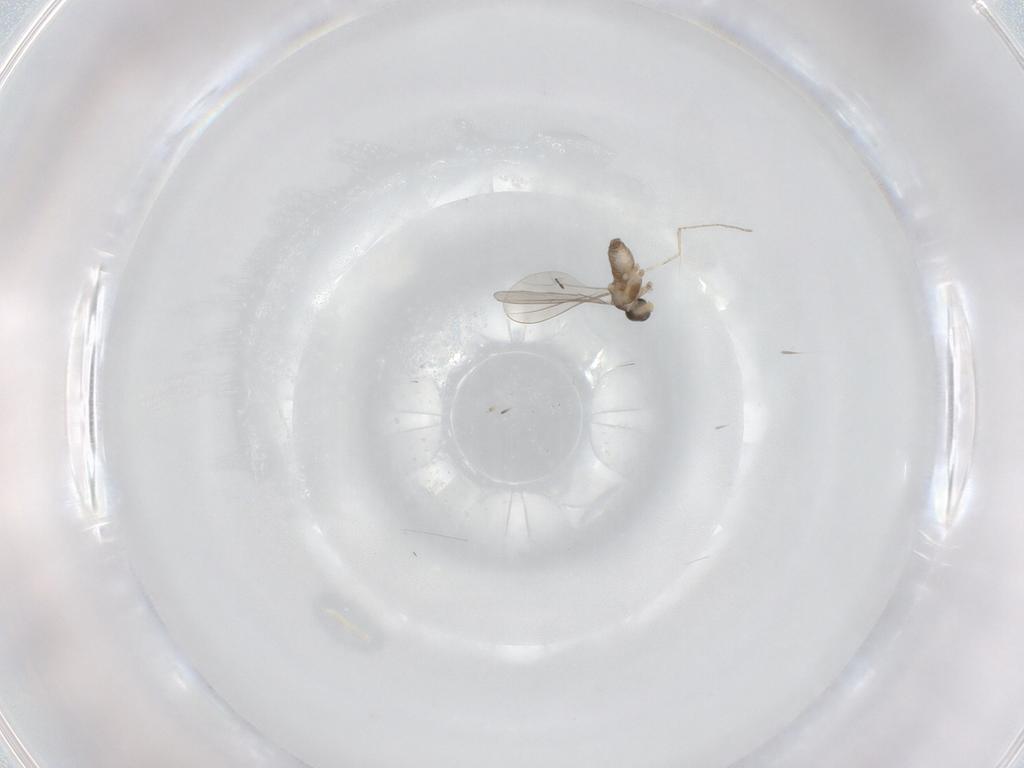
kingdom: Animalia
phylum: Arthropoda
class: Insecta
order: Diptera
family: Cecidomyiidae
